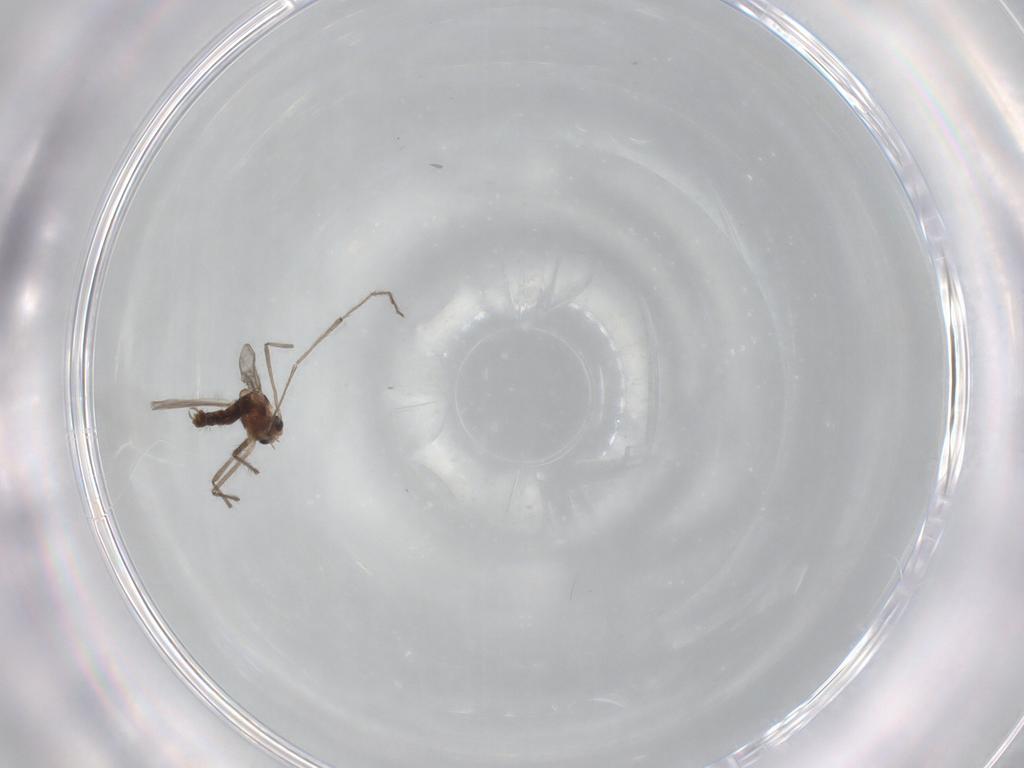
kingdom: Animalia
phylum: Arthropoda
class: Insecta
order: Diptera
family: Chironomidae
